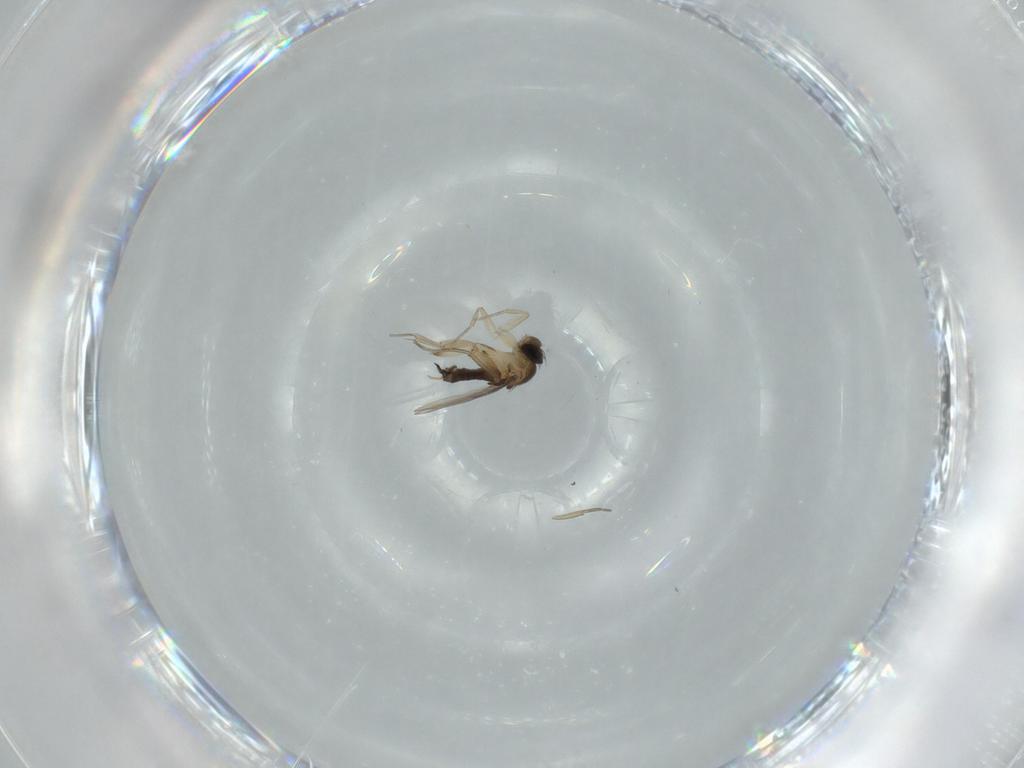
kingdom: Animalia
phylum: Arthropoda
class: Insecta
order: Diptera
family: Phoridae
